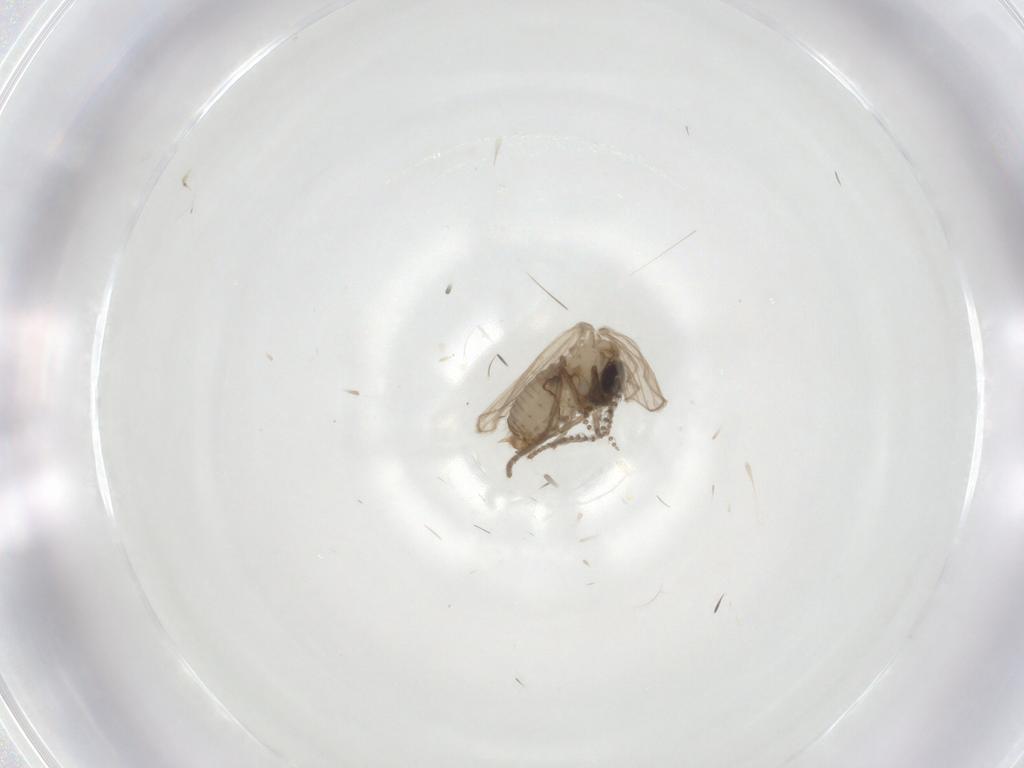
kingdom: Animalia
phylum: Arthropoda
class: Insecta
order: Diptera
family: Psychodidae
